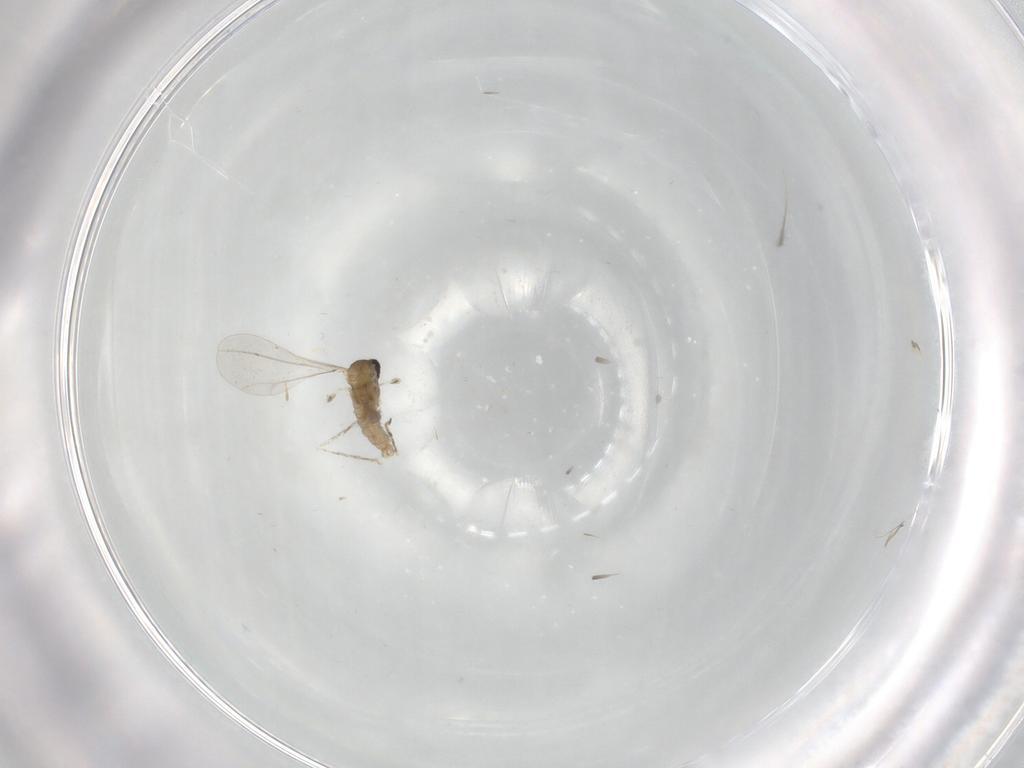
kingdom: Animalia
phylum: Arthropoda
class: Insecta
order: Diptera
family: Cecidomyiidae
